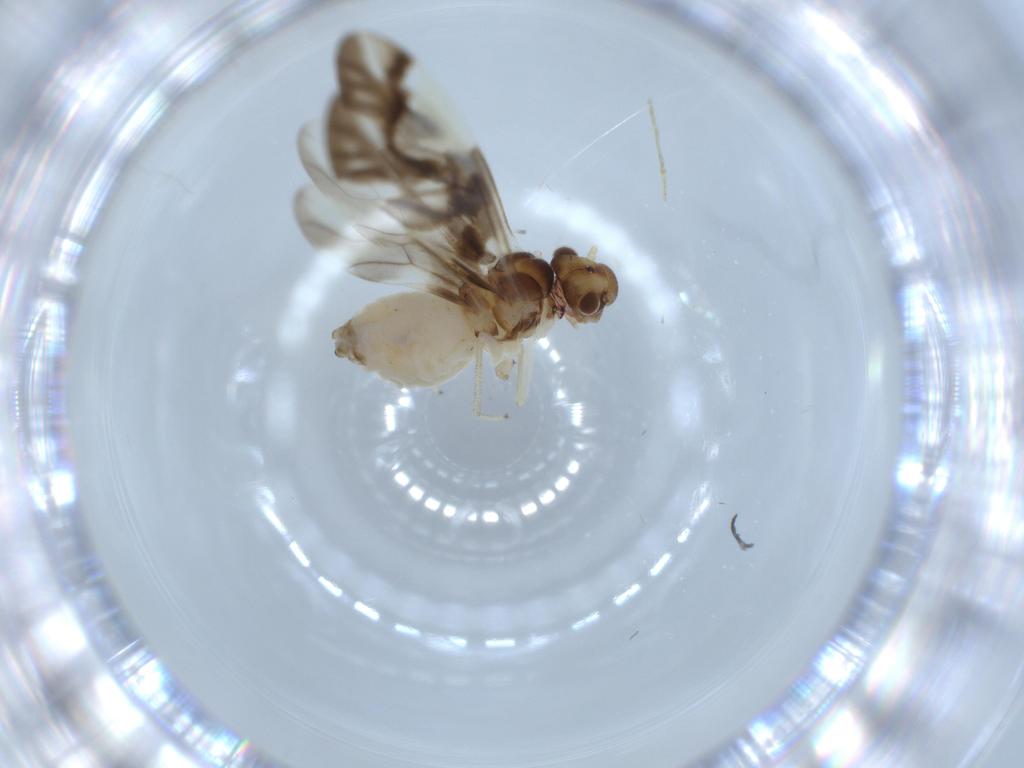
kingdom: Animalia
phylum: Arthropoda
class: Insecta
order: Psocodea
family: Caeciliusidae
